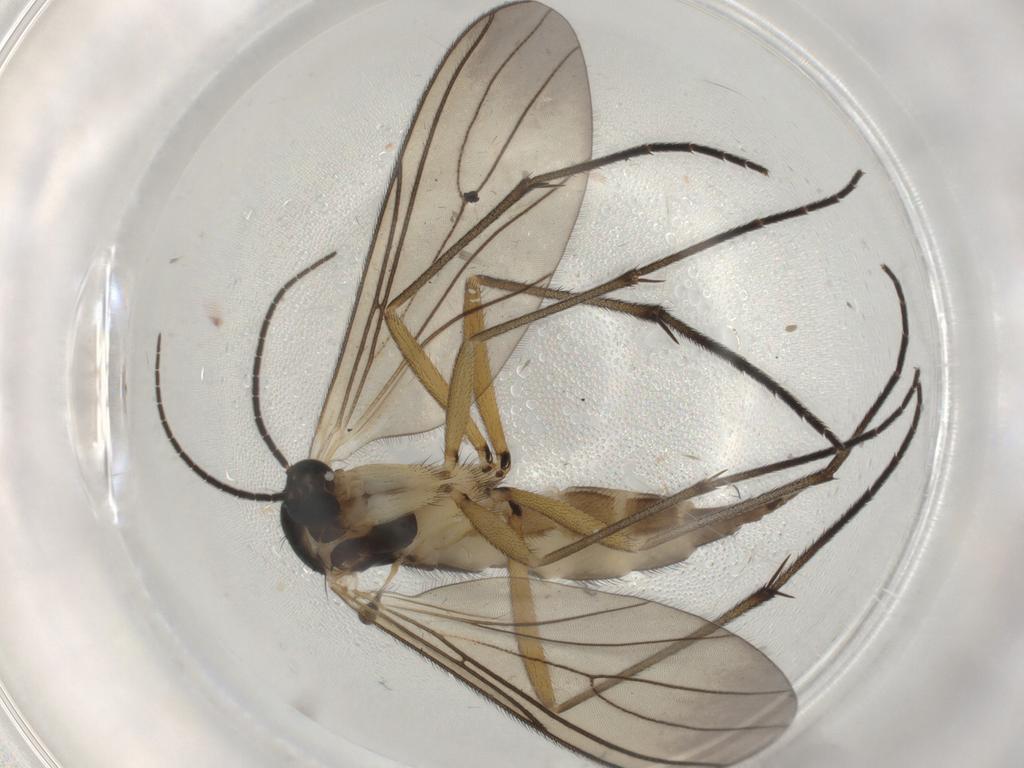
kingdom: Animalia
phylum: Arthropoda
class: Insecta
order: Diptera
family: Sciaridae
